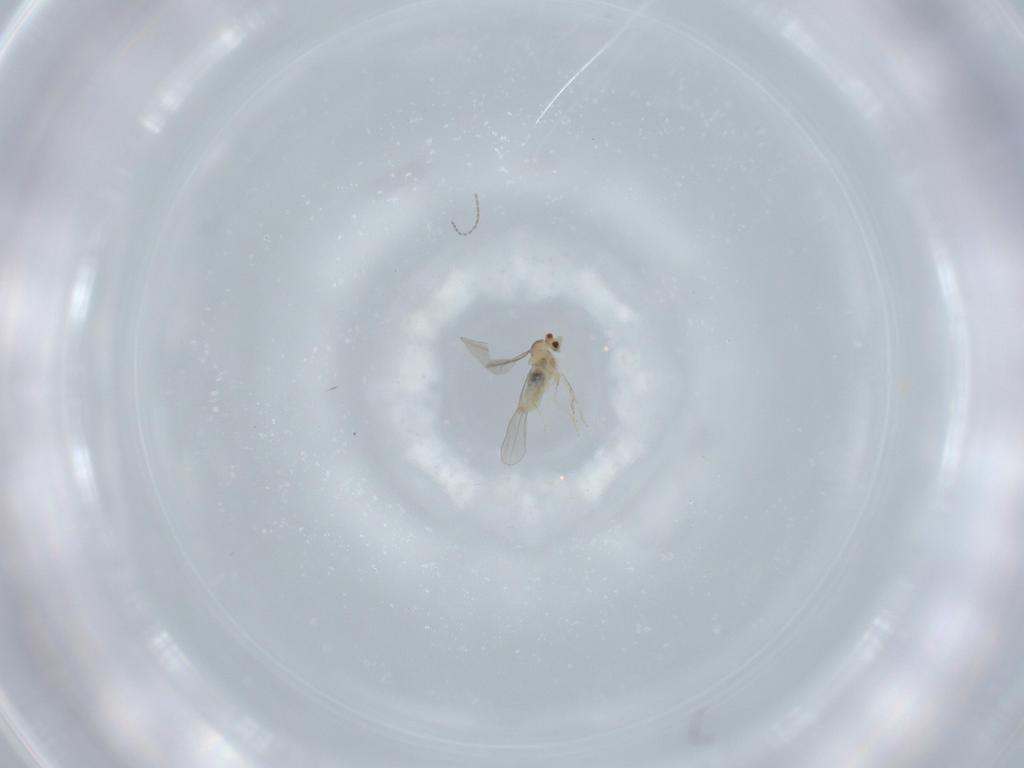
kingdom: Animalia
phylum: Arthropoda
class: Insecta
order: Diptera
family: Cecidomyiidae
